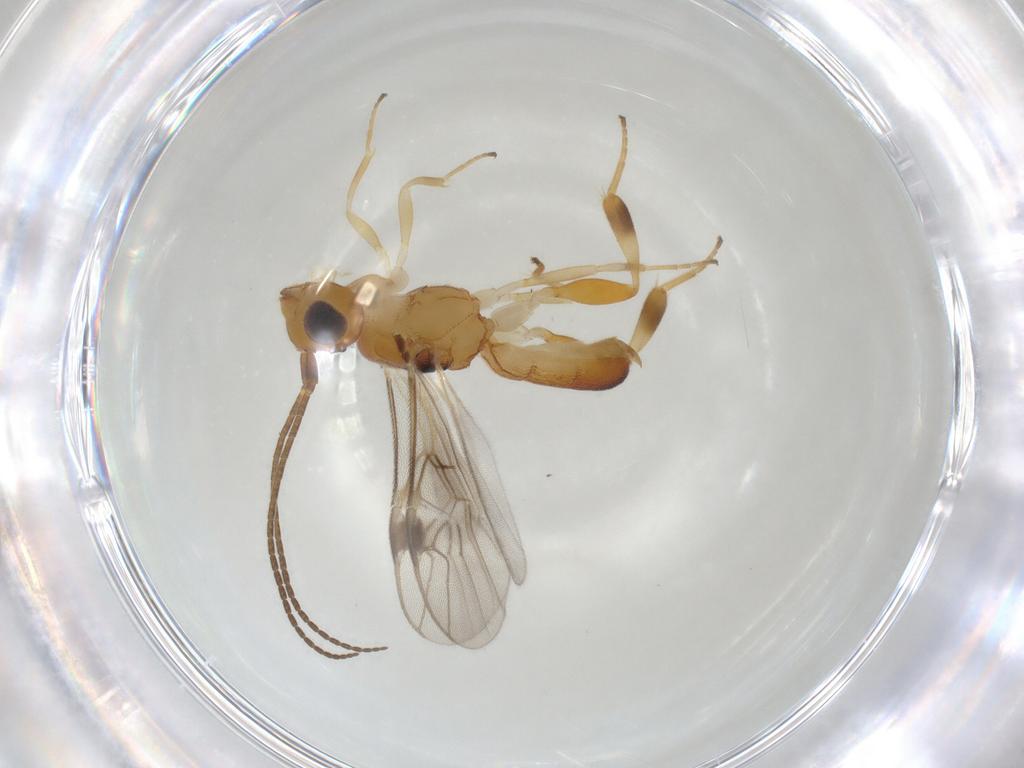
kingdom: Animalia
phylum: Arthropoda
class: Insecta
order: Hymenoptera
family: Braconidae
